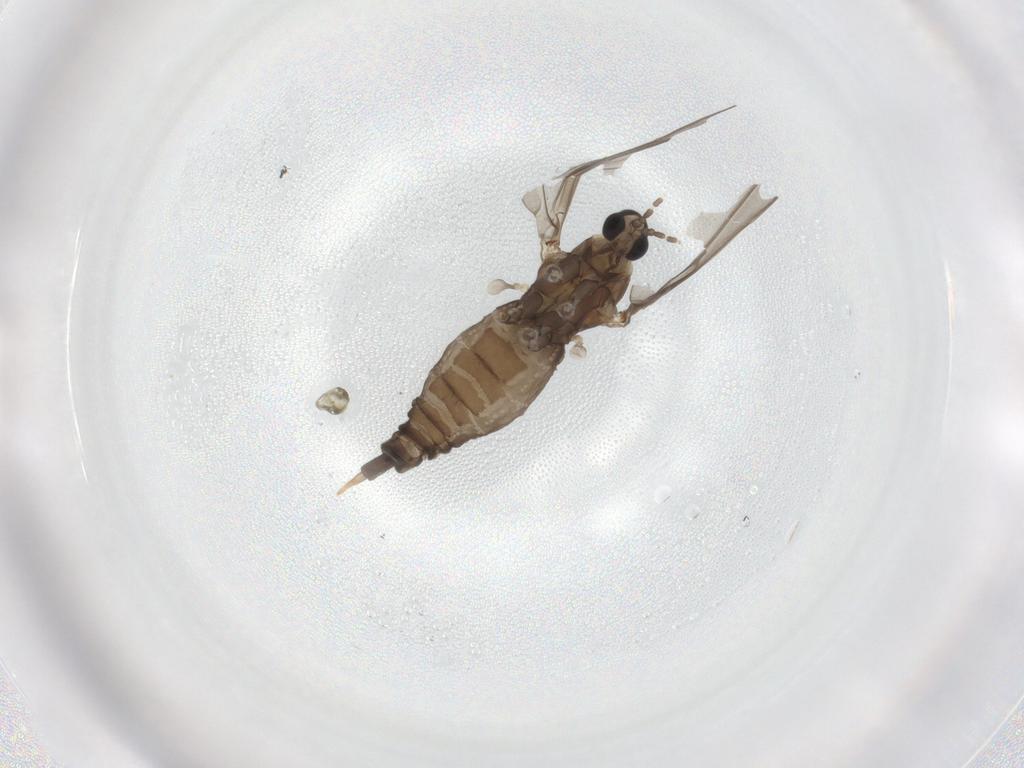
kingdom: Animalia
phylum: Arthropoda
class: Insecta
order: Diptera
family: Cecidomyiidae
